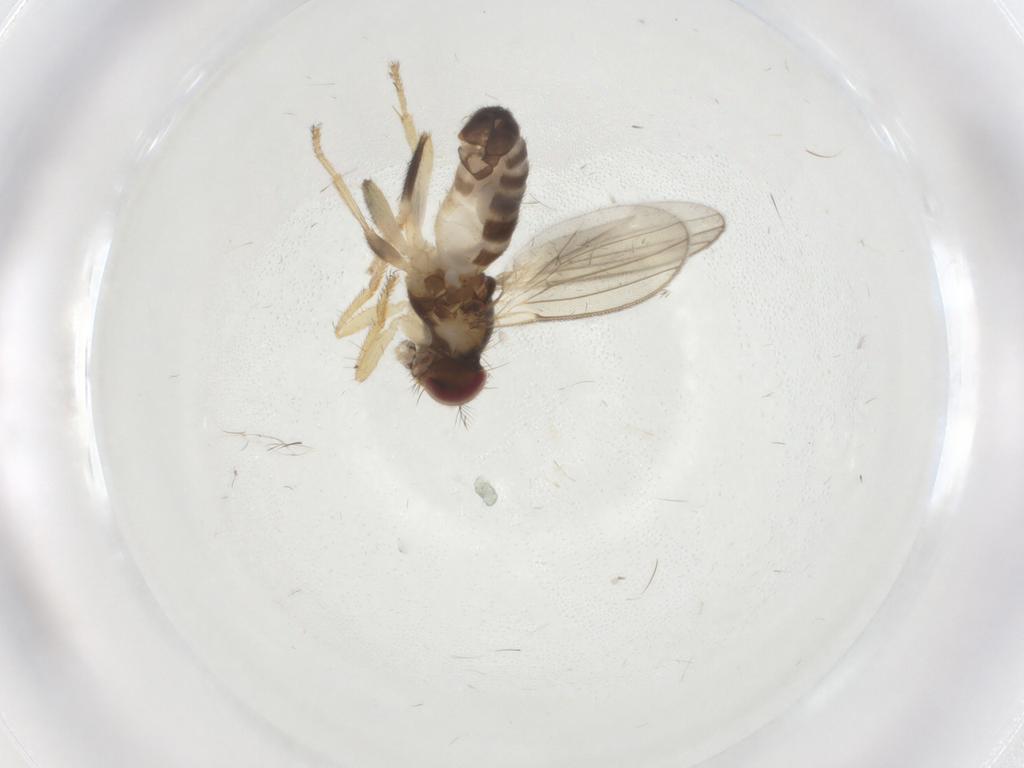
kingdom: Animalia
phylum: Arthropoda
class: Insecta
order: Diptera
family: Periscelididae
